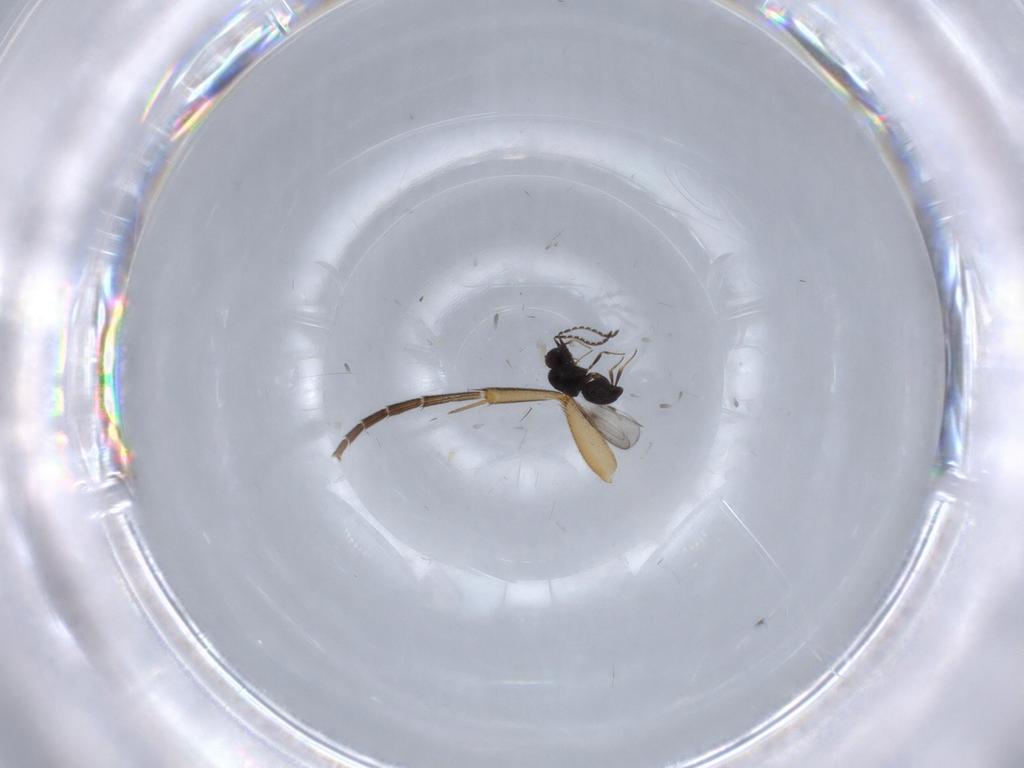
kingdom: Animalia
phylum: Arthropoda
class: Insecta
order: Hymenoptera
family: Ceraphronidae
